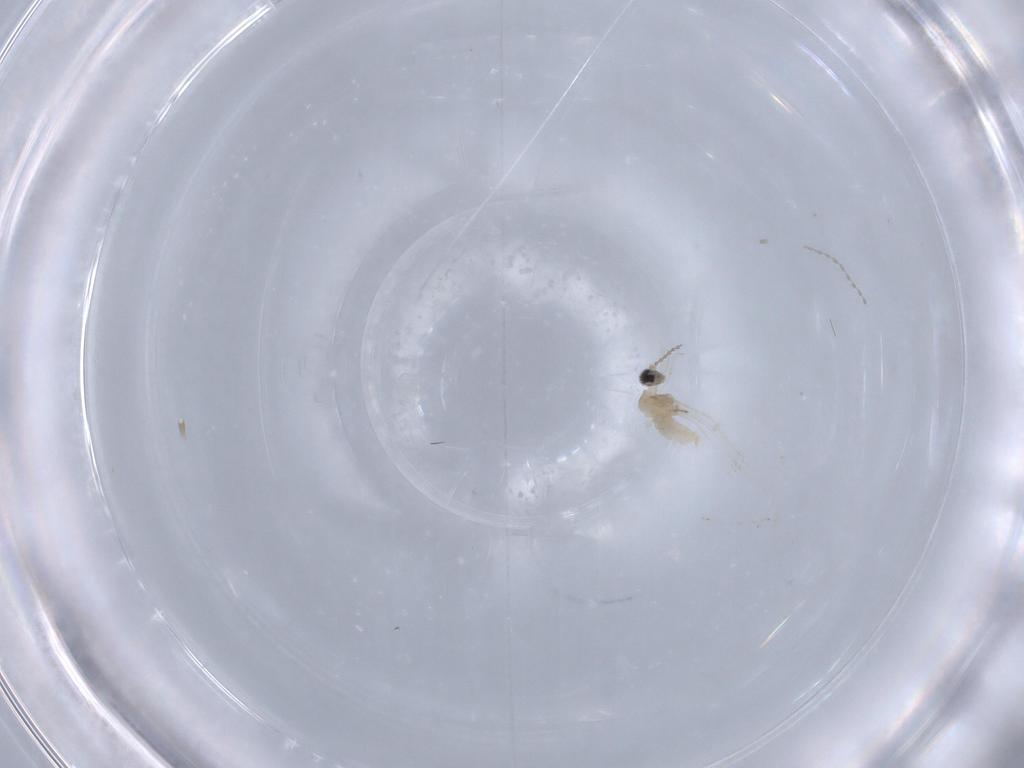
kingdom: Animalia
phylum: Arthropoda
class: Insecta
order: Diptera
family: Cecidomyiidae
